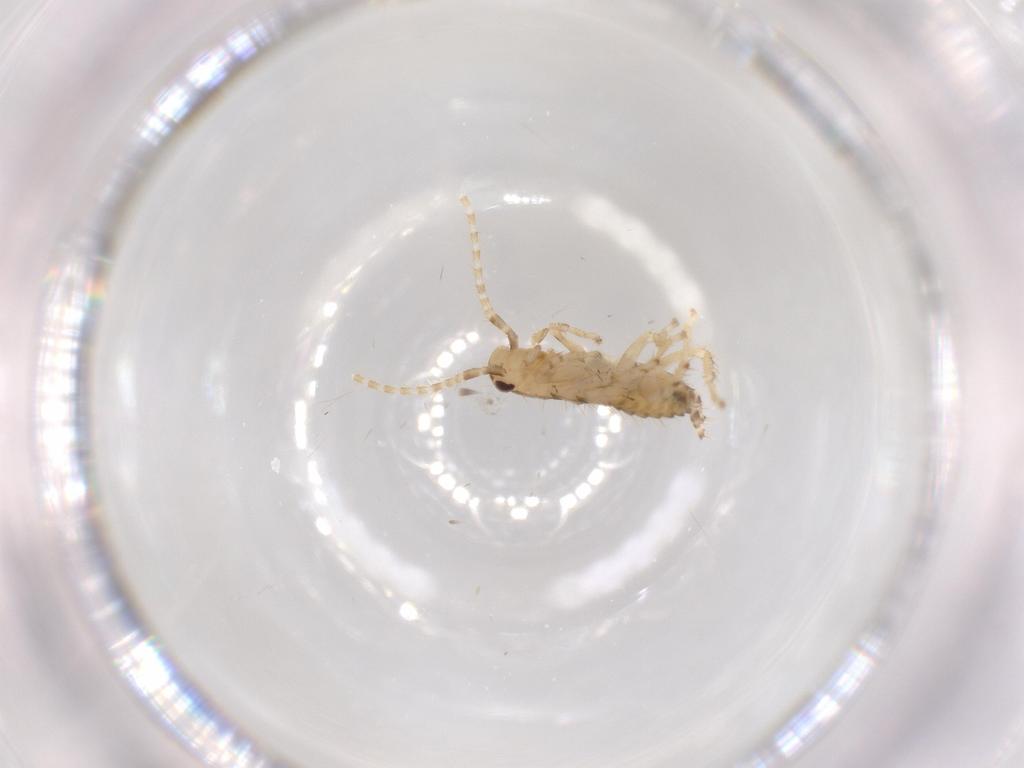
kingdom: Animalia
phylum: Arthropoda
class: Insecta
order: Blattodea
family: Ectobiidae
